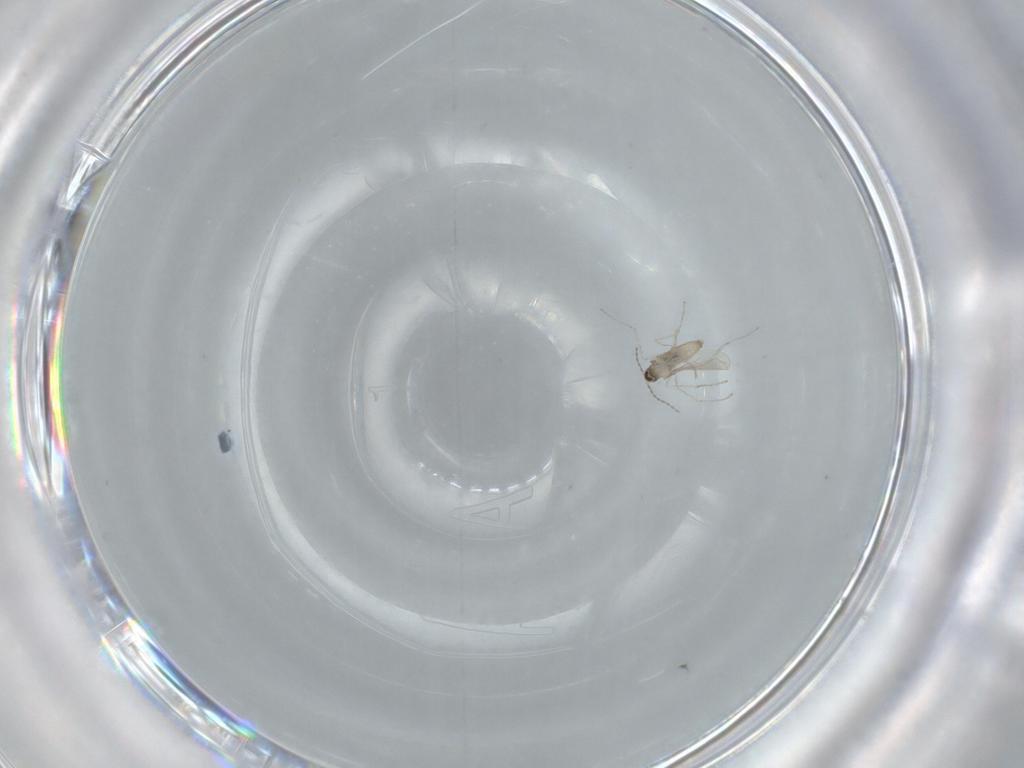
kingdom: Animalia
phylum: Arthropoda
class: Insecta
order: Diptera
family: Cecidomyiidae
